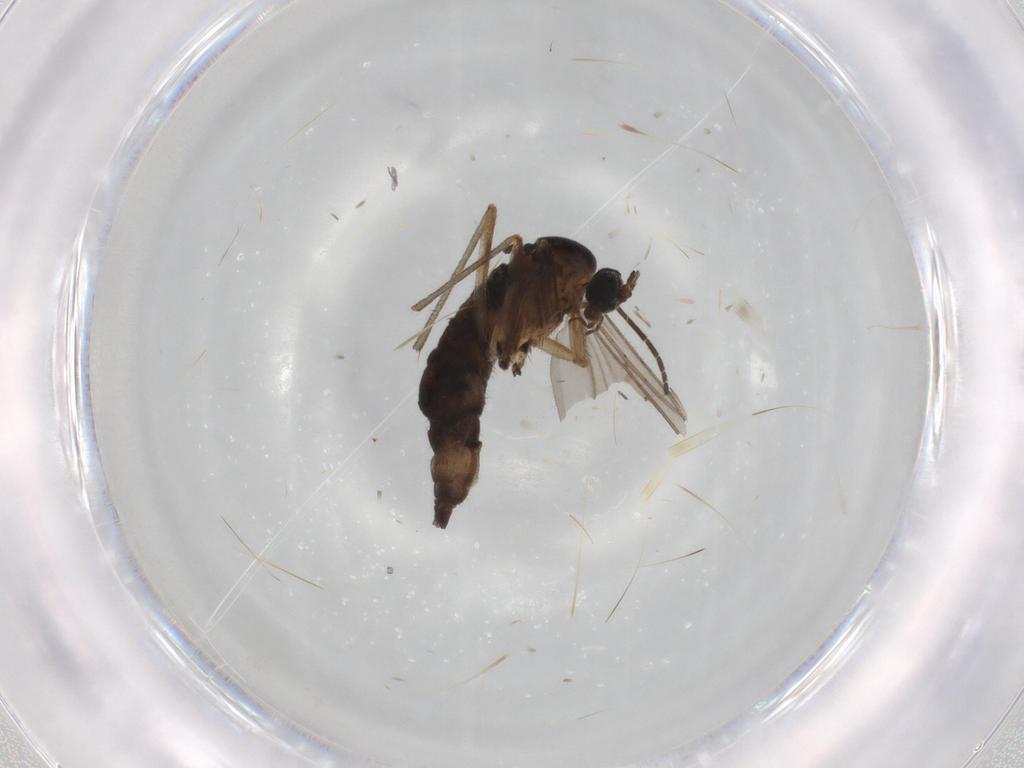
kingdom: Animalia
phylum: Arthropoda
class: Insecta
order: Diptera
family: Sciaridae
